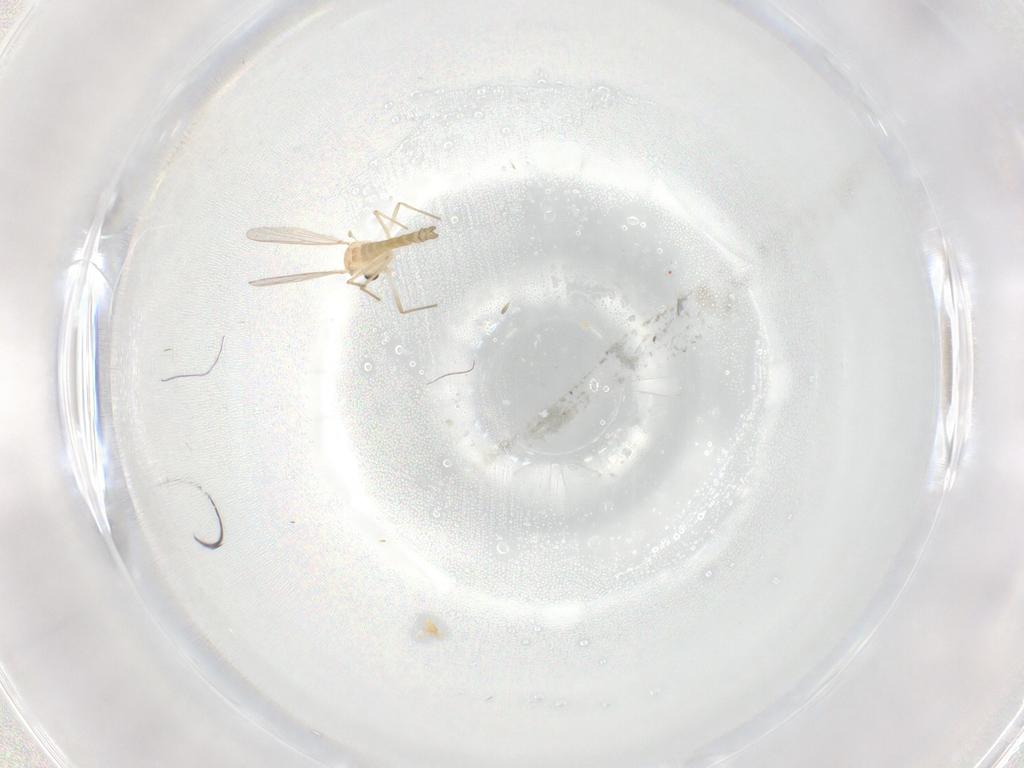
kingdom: Animalia
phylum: Arthropoda
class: Insecta
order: Diptera
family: Chironomidae
